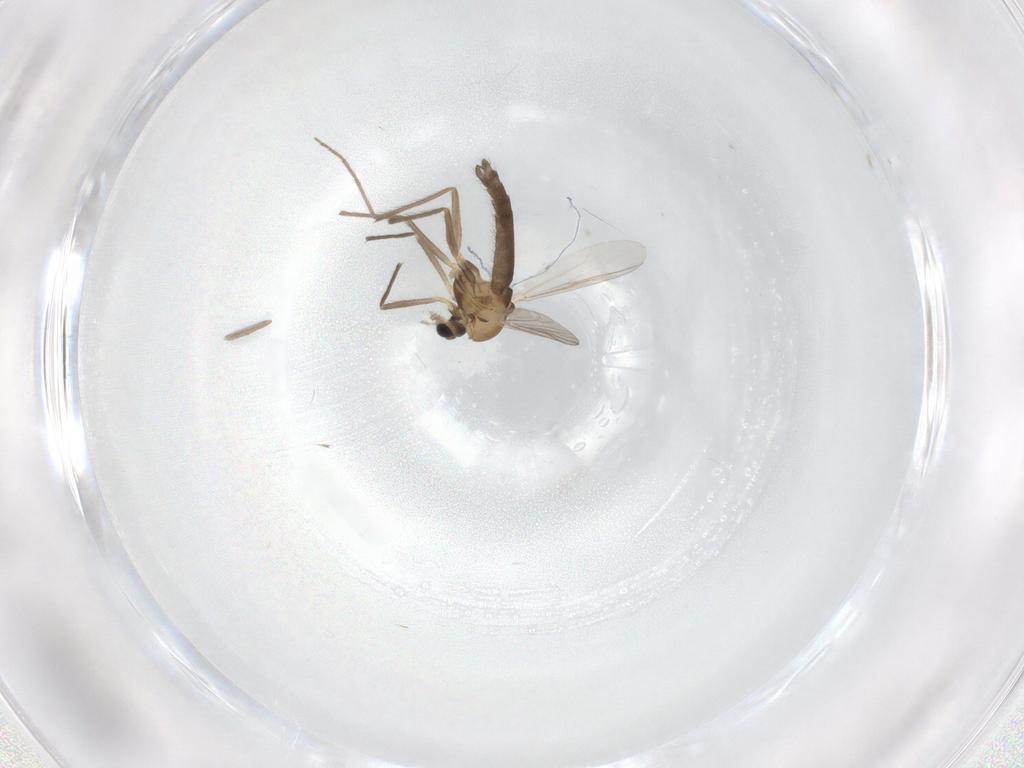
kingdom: Animalia
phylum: Arthropoda
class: Insecta
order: Diptera
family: Chironomidae
